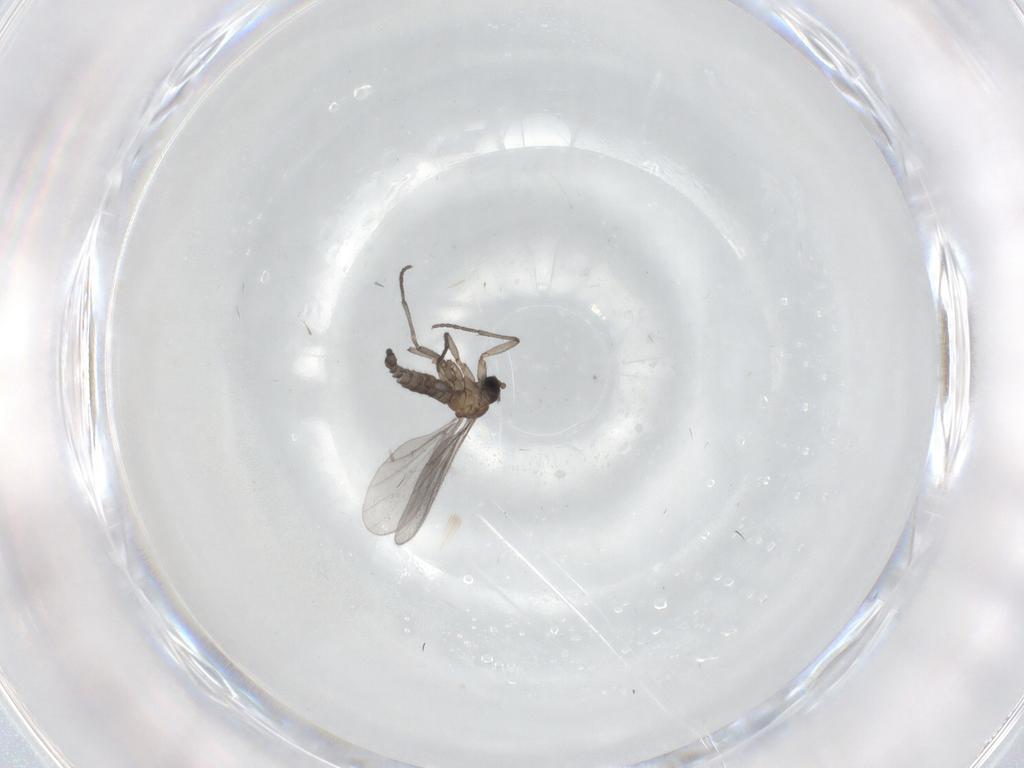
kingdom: Animalia
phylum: Arthropoda
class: Insecta
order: Diptera
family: Sciaridae
